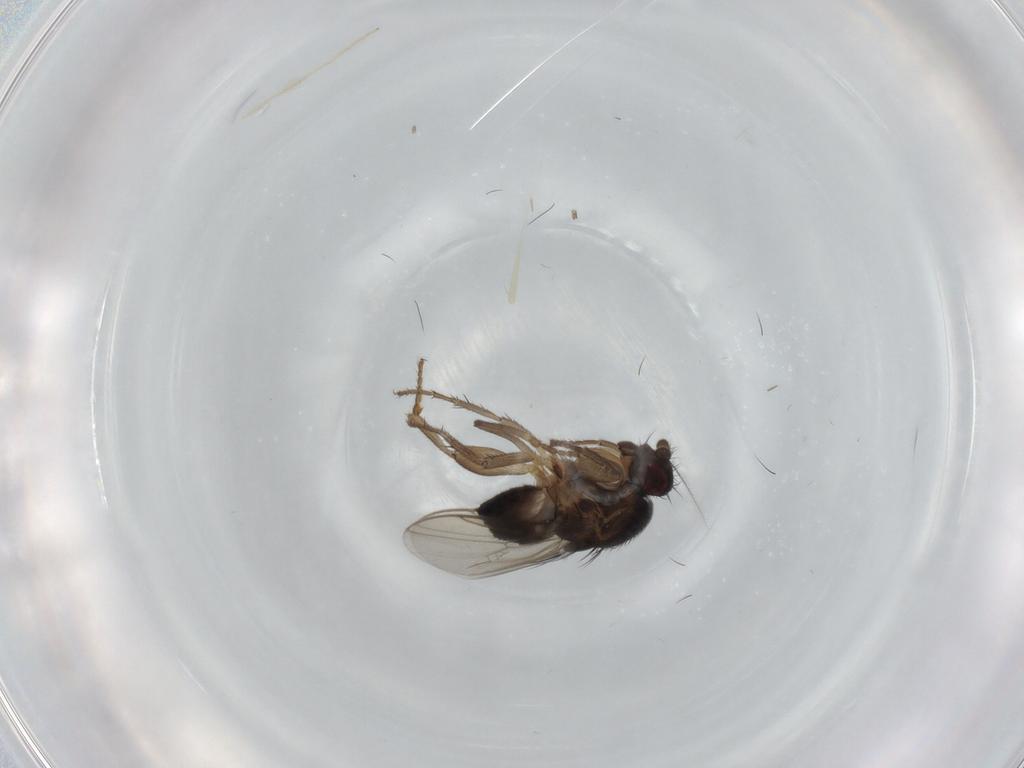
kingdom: Animalia
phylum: Arthropoda
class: Insecta
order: Diptera
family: Sphaeroceridae
